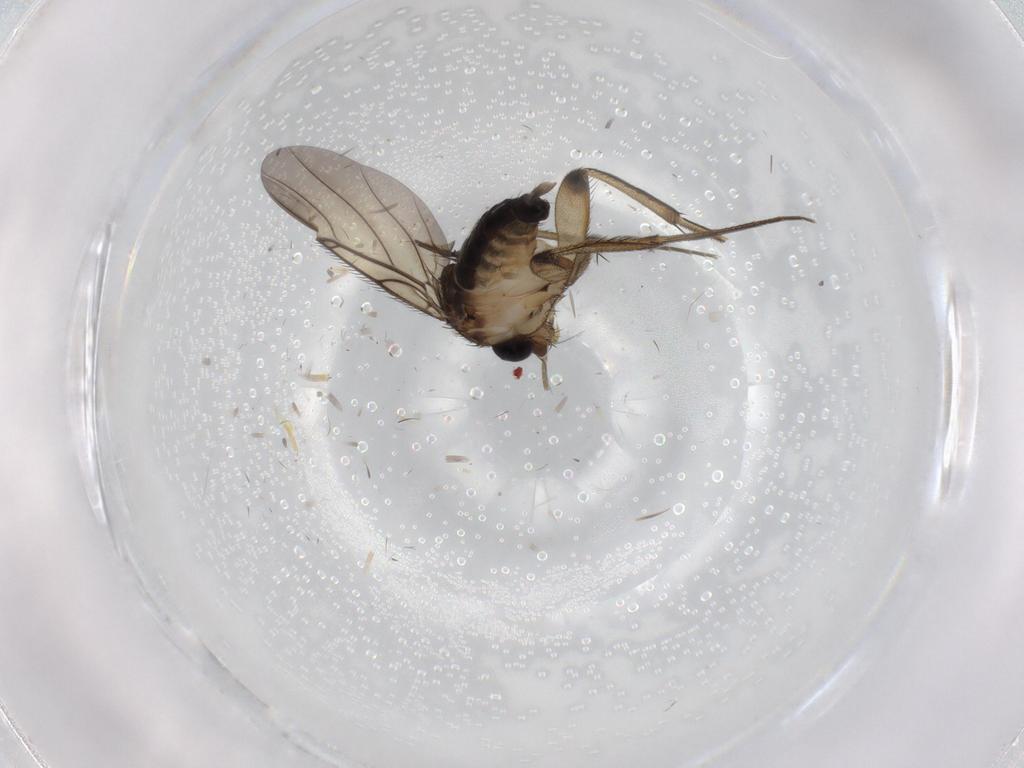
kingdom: Animalia
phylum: Arthropoda
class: Insecta
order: Diptera
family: Phoridae
